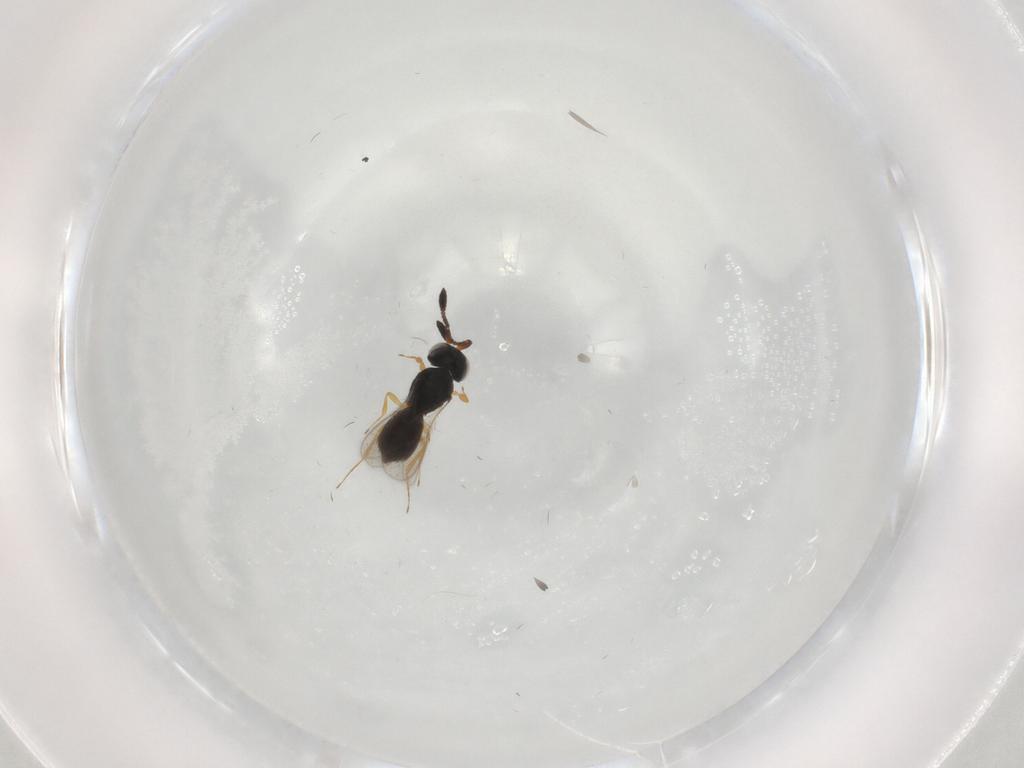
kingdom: Animalia
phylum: Arthropoda
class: Insecta
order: Hymenoptera
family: Scelionidae
